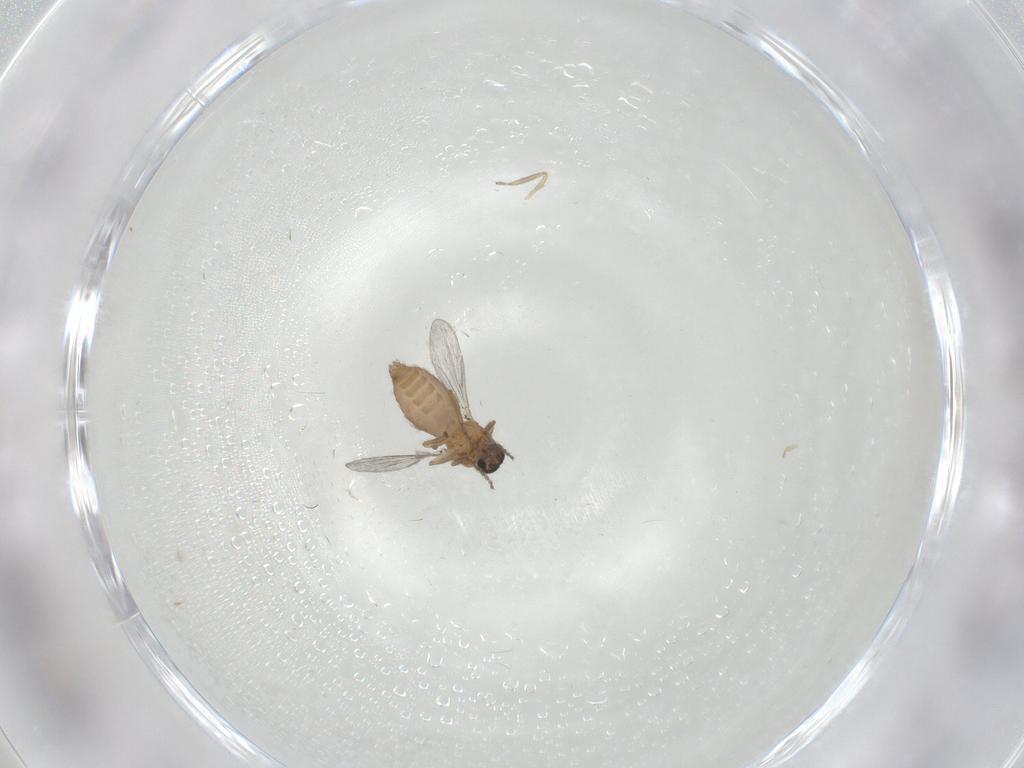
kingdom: Animalia
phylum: Arthropoda
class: Insecta
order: Diptera
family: Ceratopogonidae
